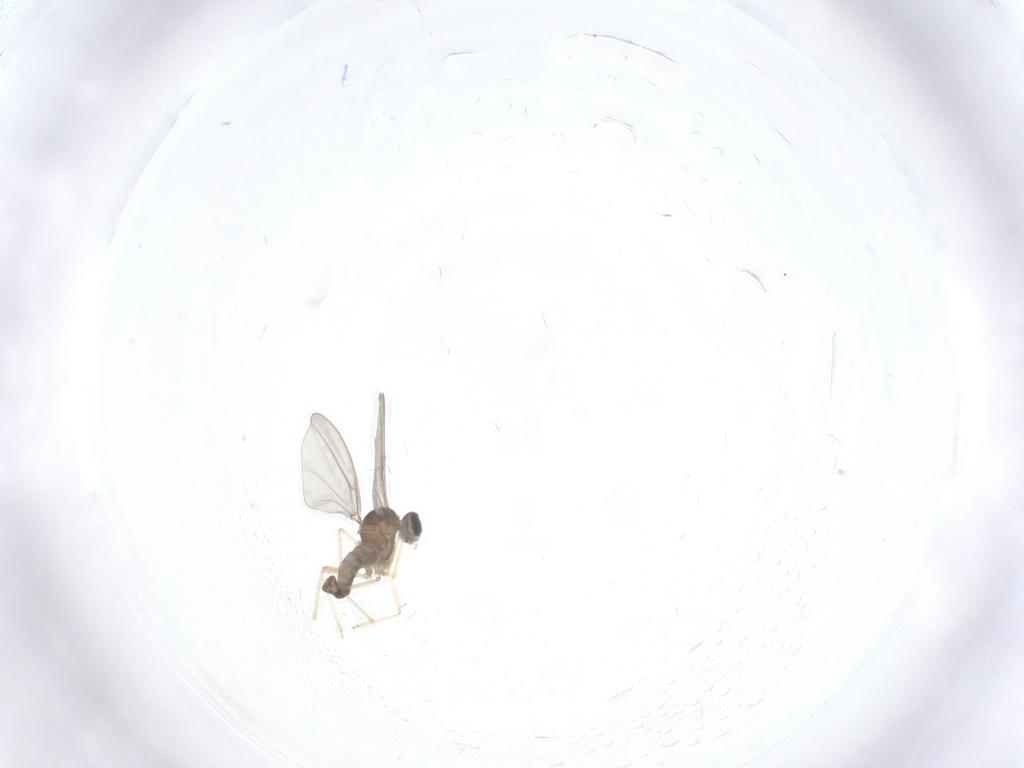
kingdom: Animalia
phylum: Arthropoda
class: Insecta
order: Diptera
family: Cecidomyiidae
